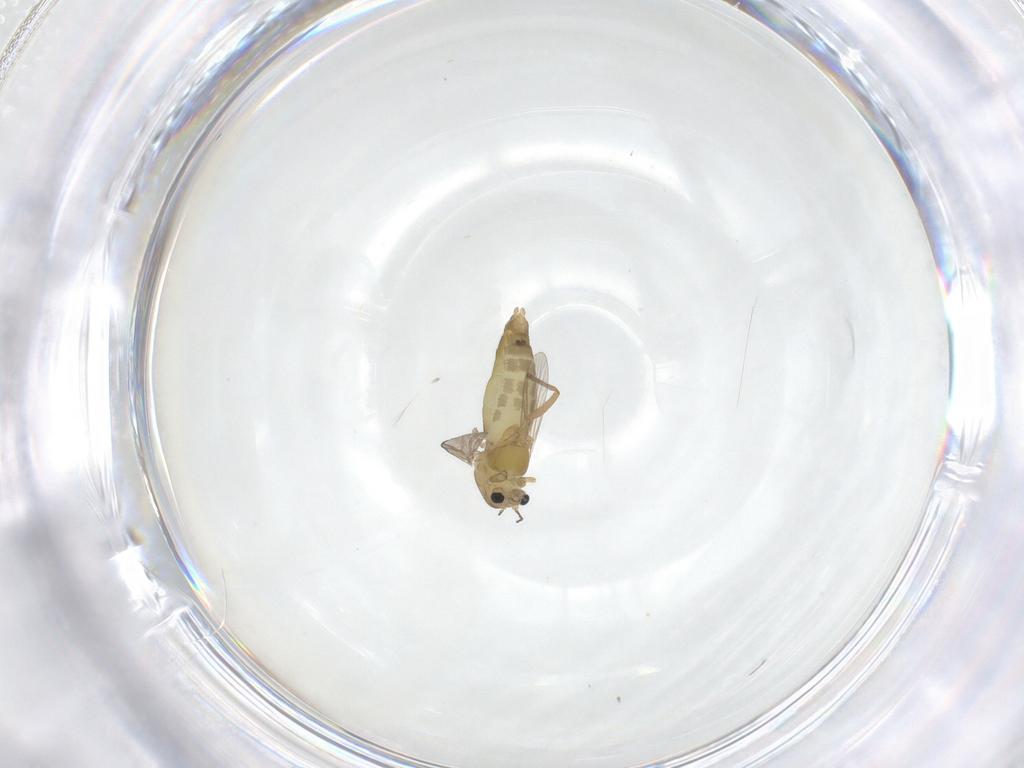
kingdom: Animalia
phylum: Arthropoda
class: Insecta
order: Diptera
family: Chironomidae
